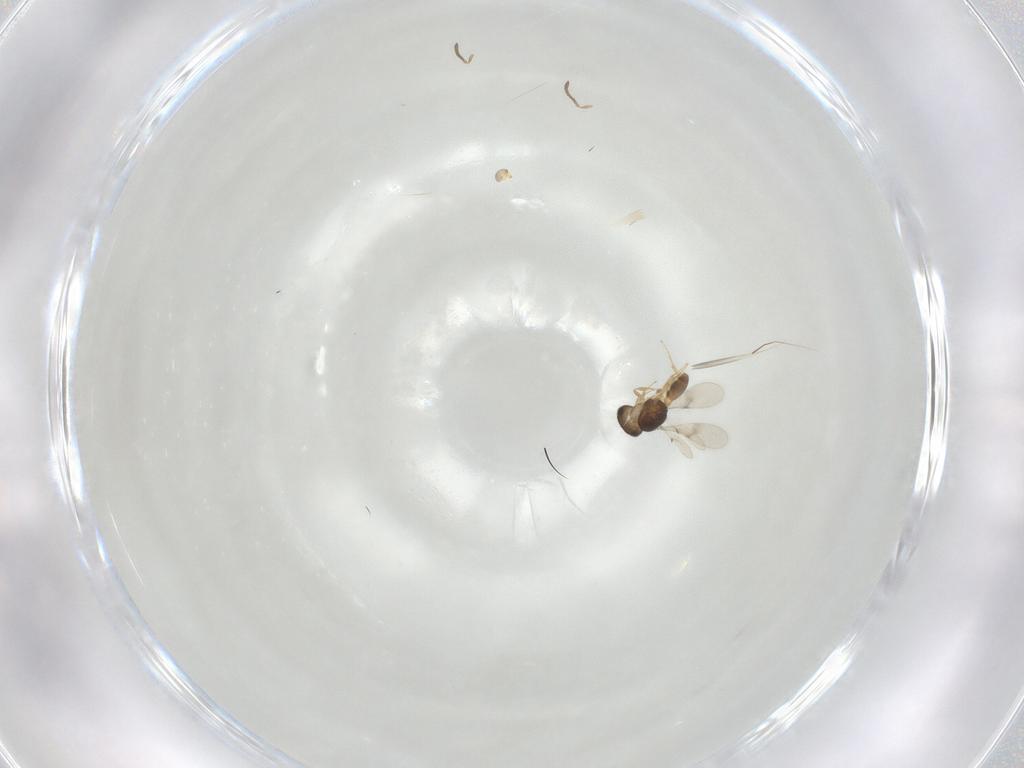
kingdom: Animalia
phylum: Arthropoda
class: Insecta
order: Hymenoptera
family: Scelionidae
